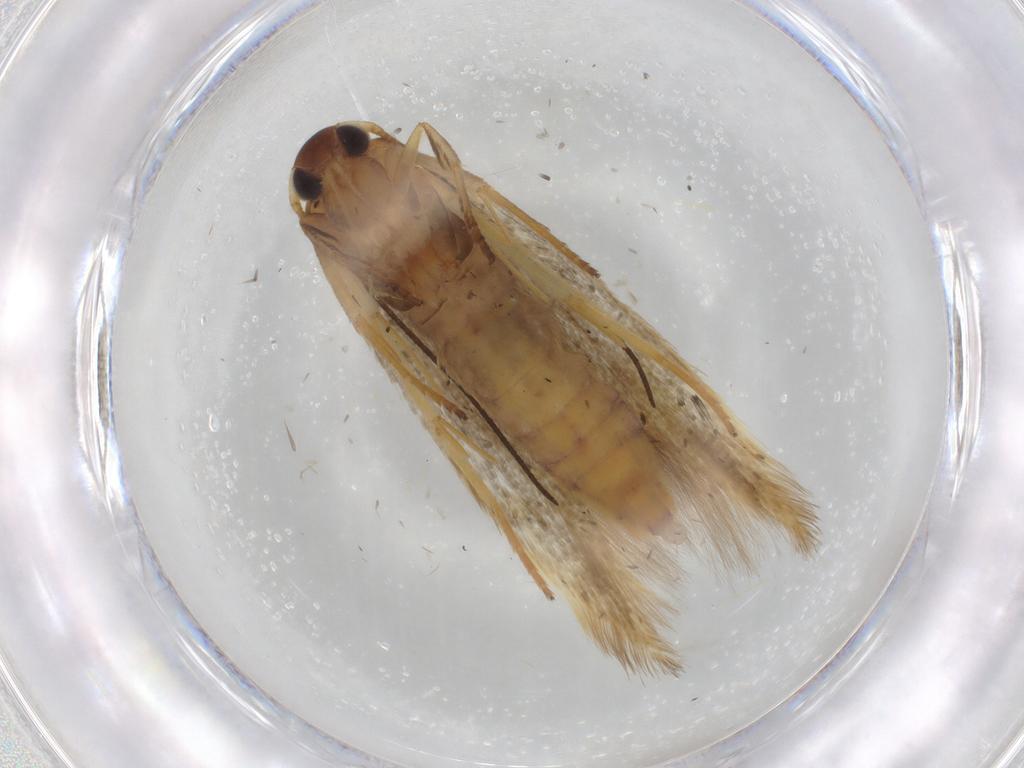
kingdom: Animalia
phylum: Arthropoda
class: Insecta
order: Lepidoptera
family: Stathmopodidae
